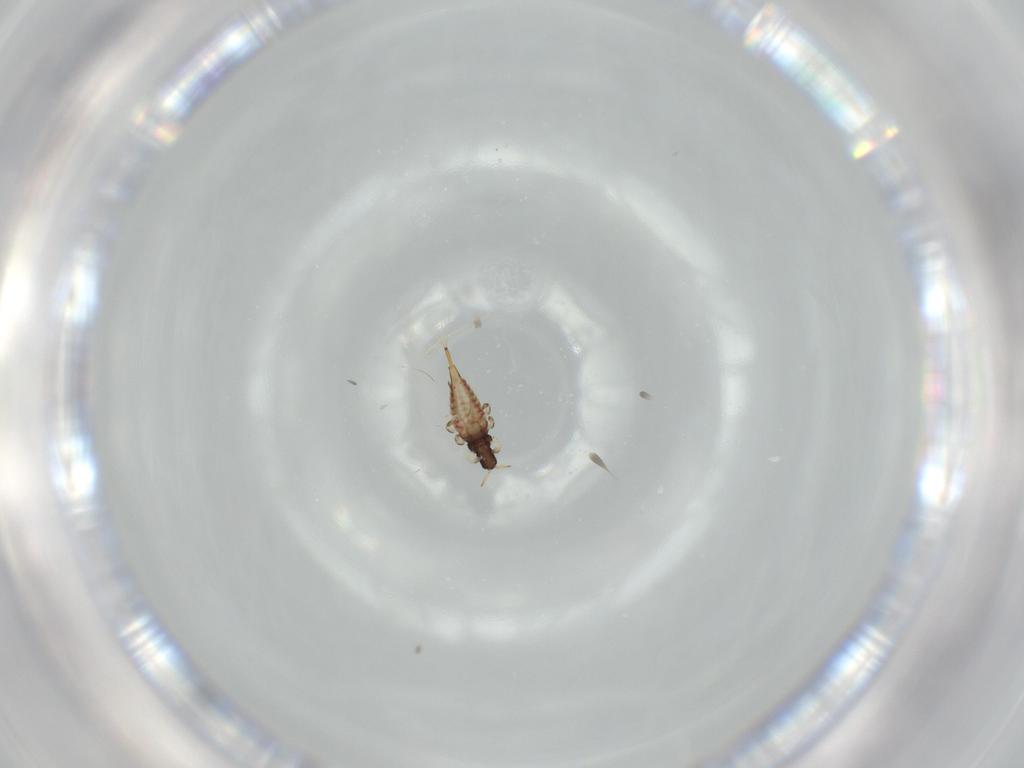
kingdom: Animalia
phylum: Arthropoda
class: Insecta
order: Thysanoptera
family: Phlaeothripidae
